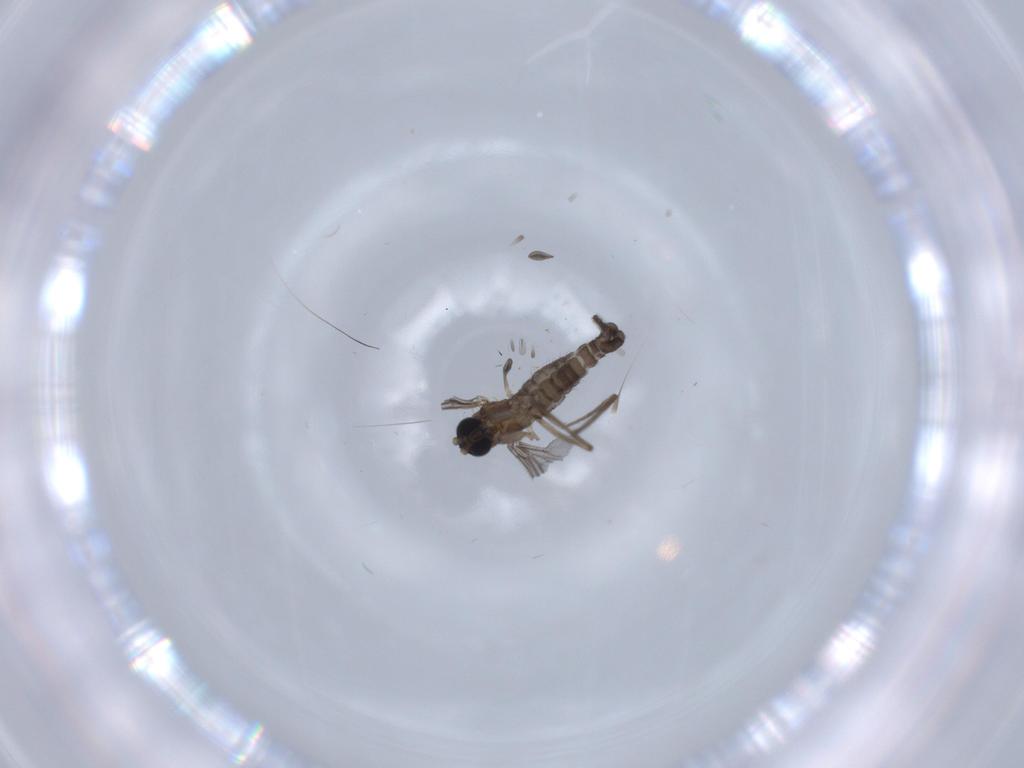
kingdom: Animalia
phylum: Arthropoda
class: Insecta
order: Diptera
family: Sciaridae
